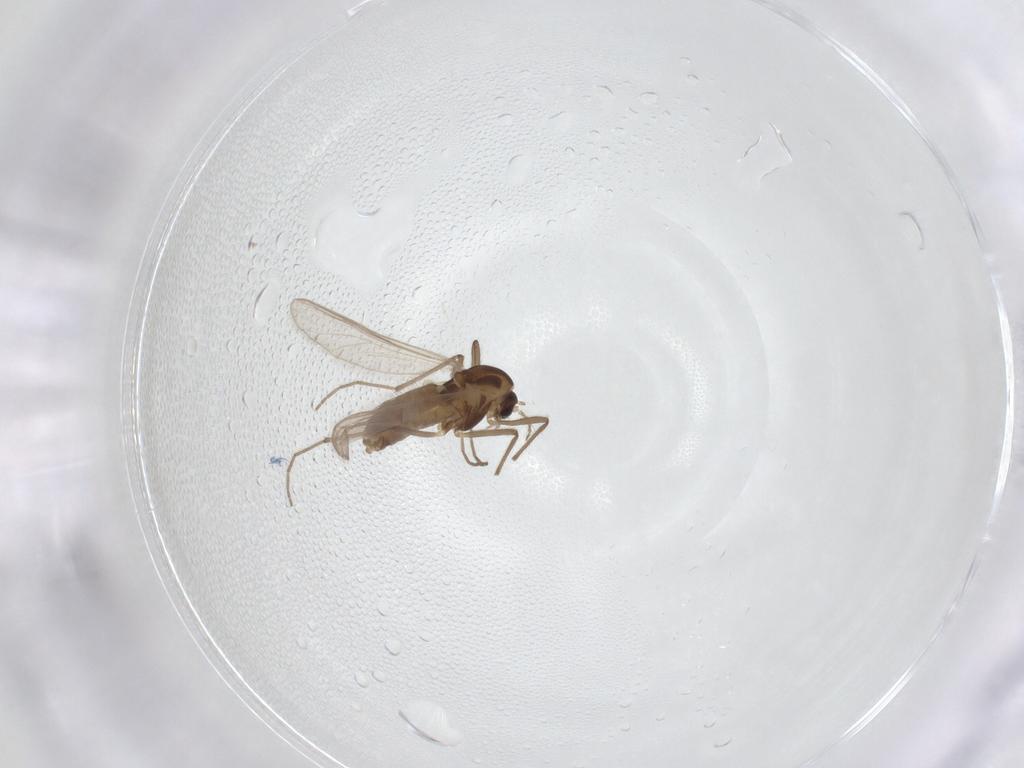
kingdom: Animalia
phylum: Arthropoda
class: Insecta
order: Diptera
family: Chironomidae
